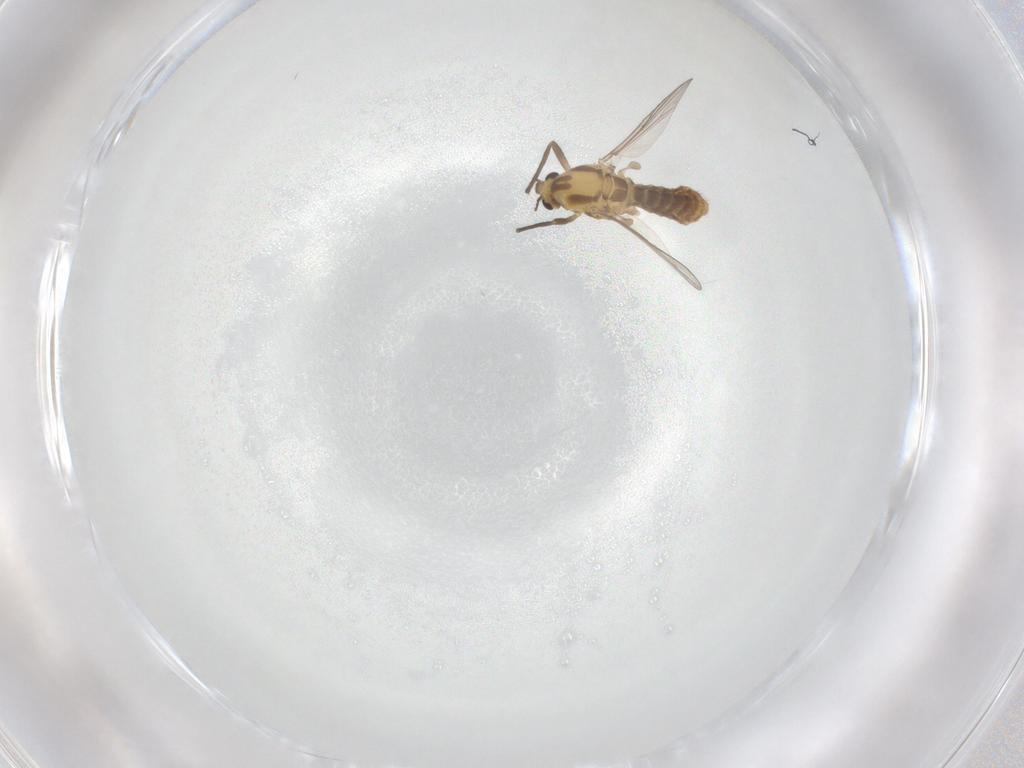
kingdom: Animalia
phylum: Arthropoda
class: Insecta
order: Diptera
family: Chironomidae
